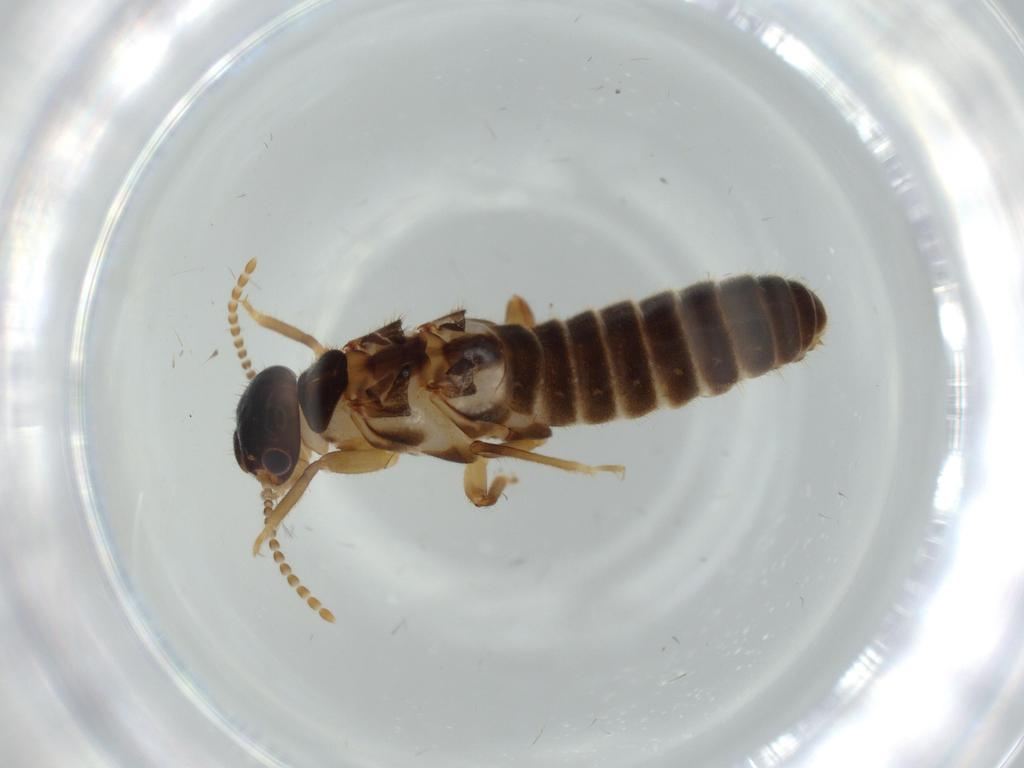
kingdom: Animalia
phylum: Arthropoda
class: Insecta
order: Blattodea
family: Termitidae
